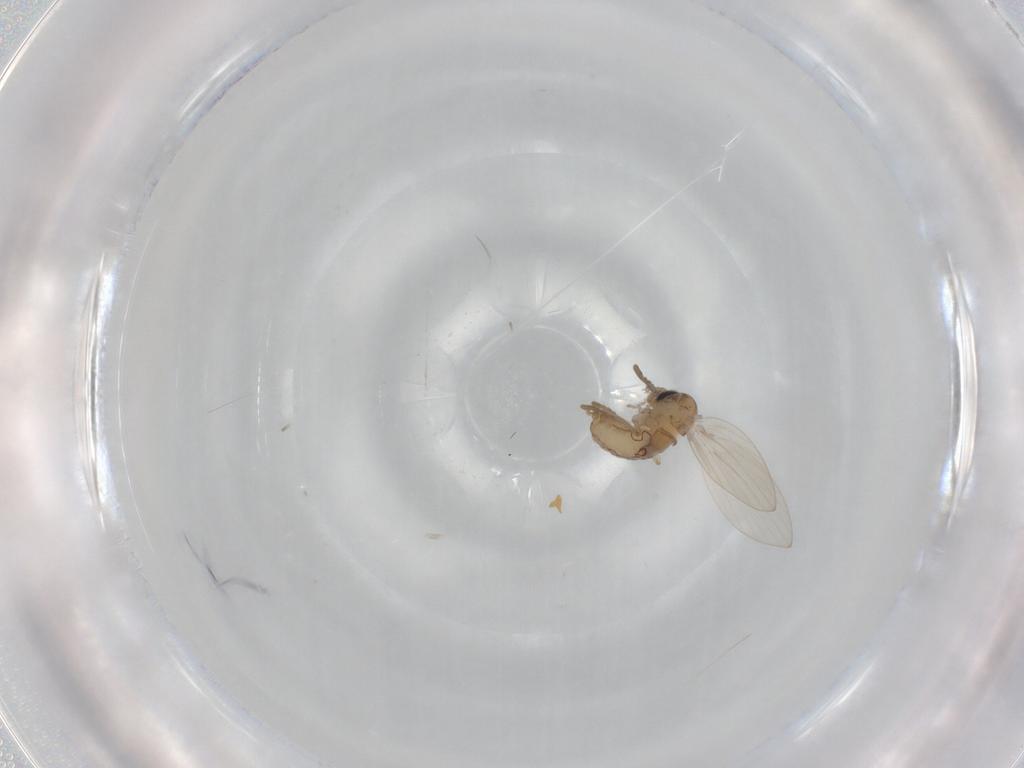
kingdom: Animalia
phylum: Arthropoda
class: Insecta
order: Diptera
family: Psychodidae
